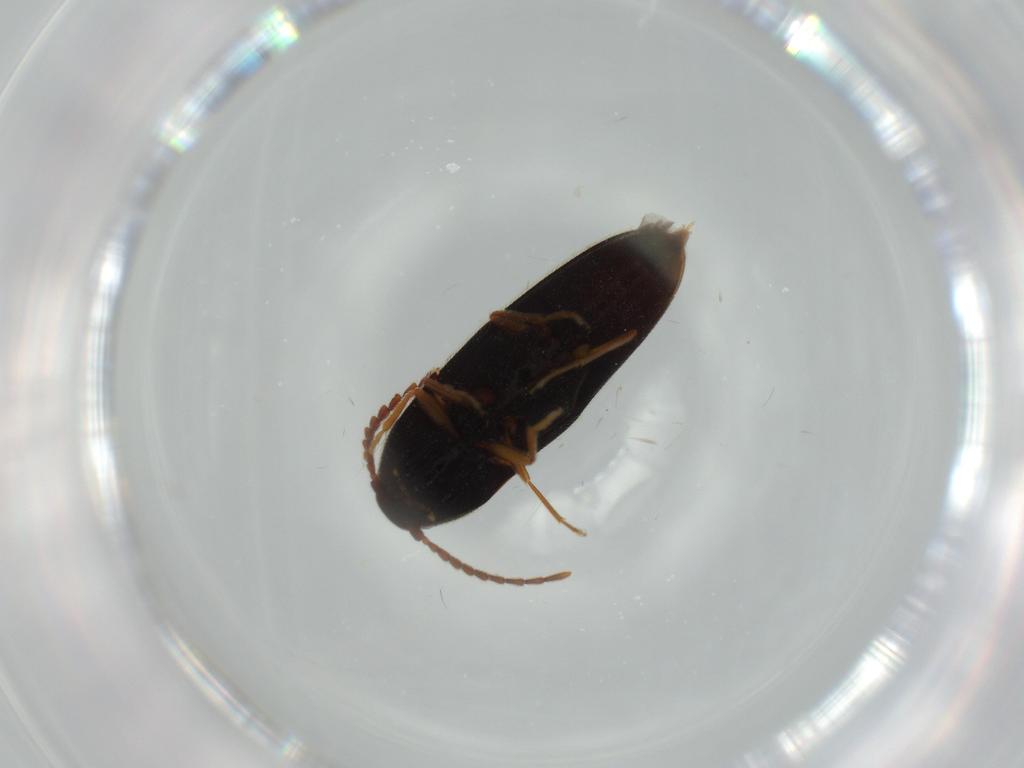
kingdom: Animalia
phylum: Arthropoda
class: Insecta
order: Coleoptera
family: Elateridae
